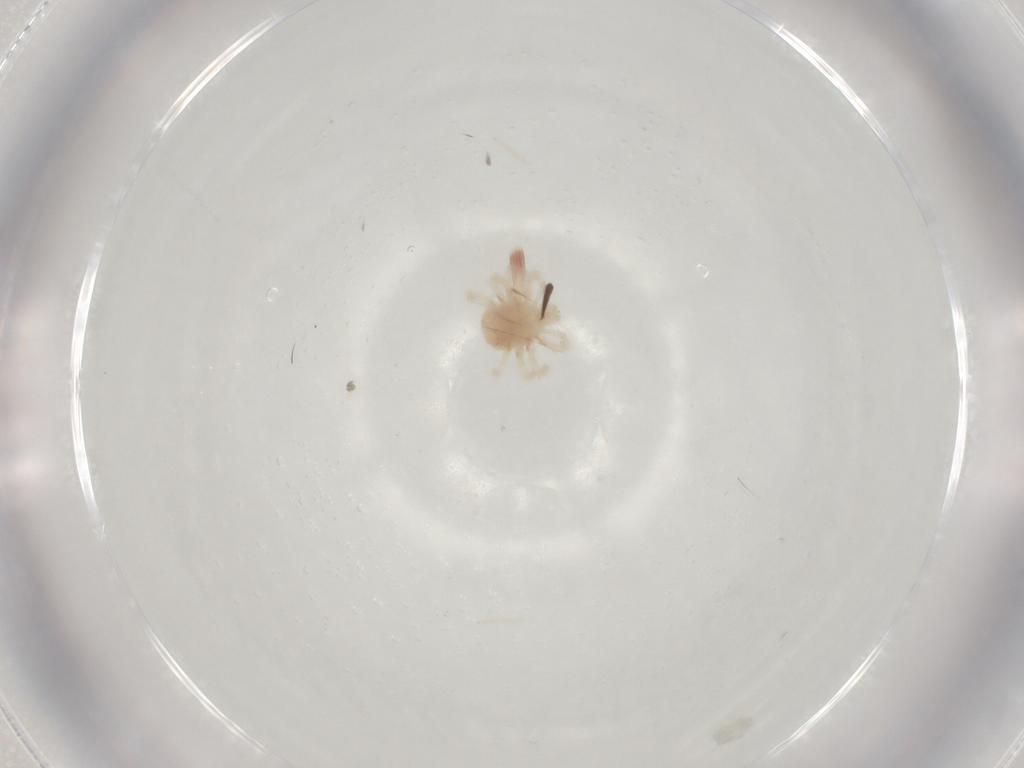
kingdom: Animalia
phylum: Arthropoda
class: Arachnida
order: Trombidiformes
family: Anystidae
